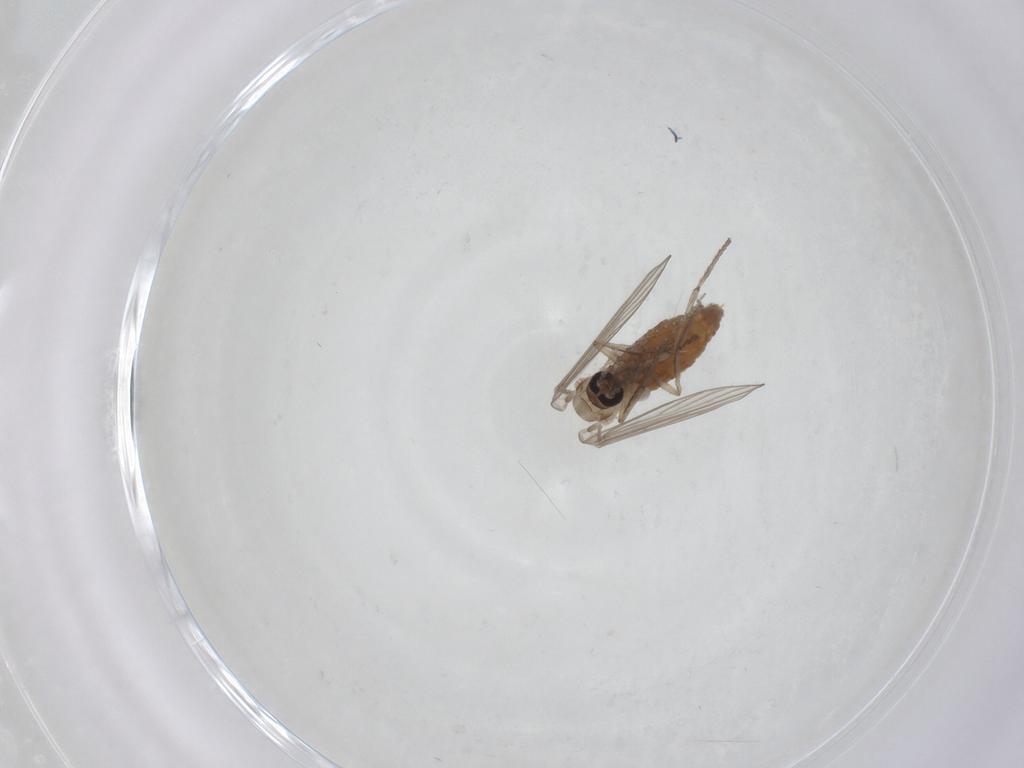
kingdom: Animalia
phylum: Arthropoda
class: Insecta
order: Diptera
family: Psychodidae
